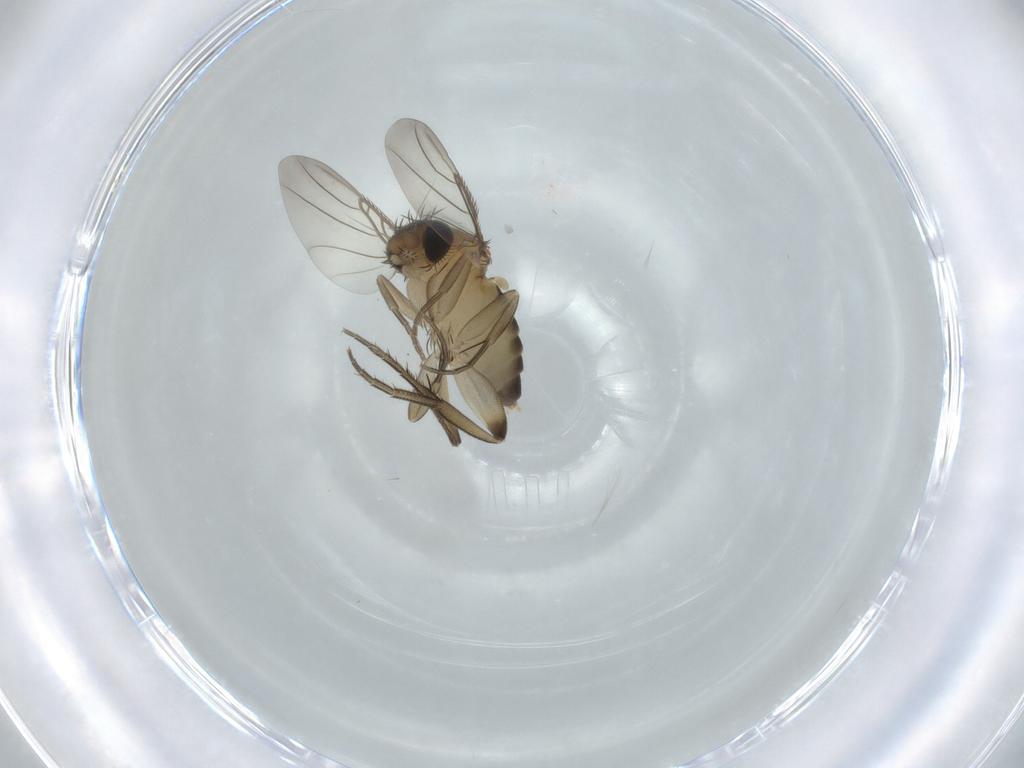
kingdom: Animalia
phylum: Arthropoda
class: Insecta
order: Diptera
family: Phoridae
